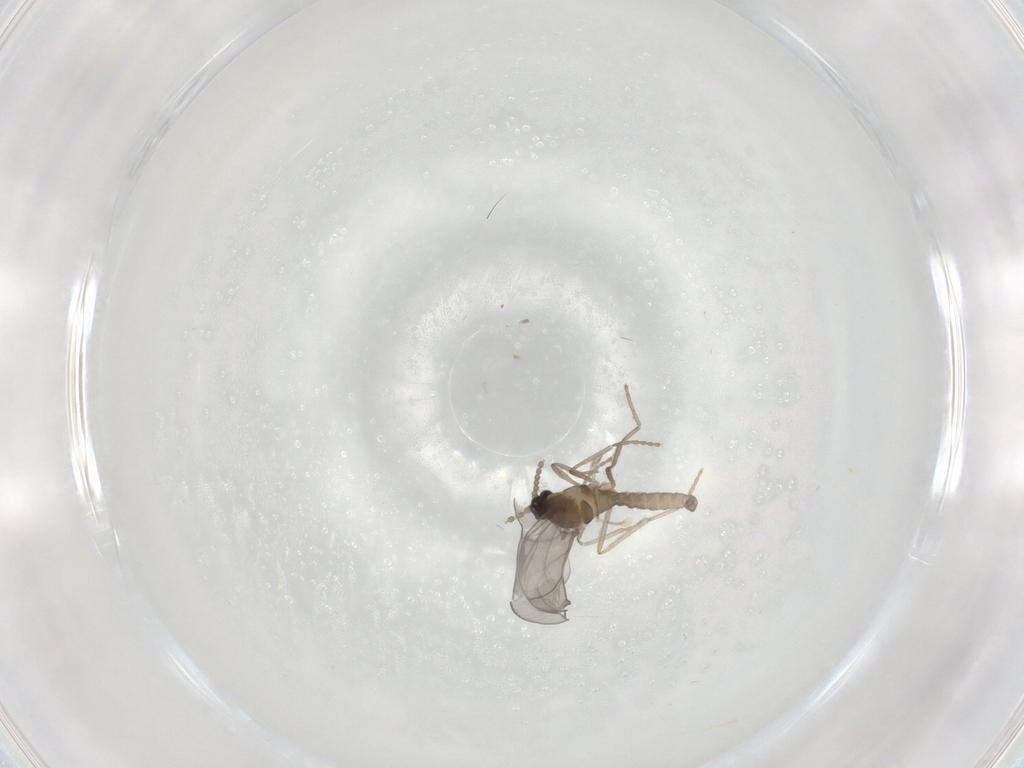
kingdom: Animalia
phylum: Arthropoda
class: Insecta
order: Diptera
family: Cecidomyiidae
